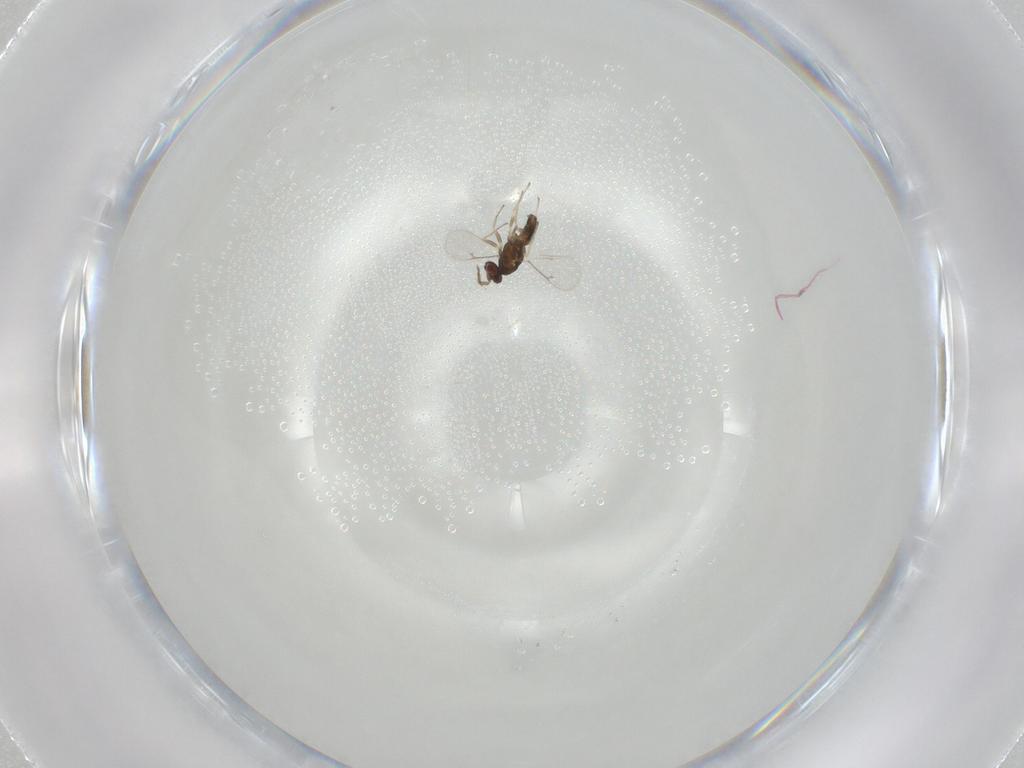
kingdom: Animalia
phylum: Arthropoda
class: Insecta
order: Hymenoptera
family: Eulophidae
